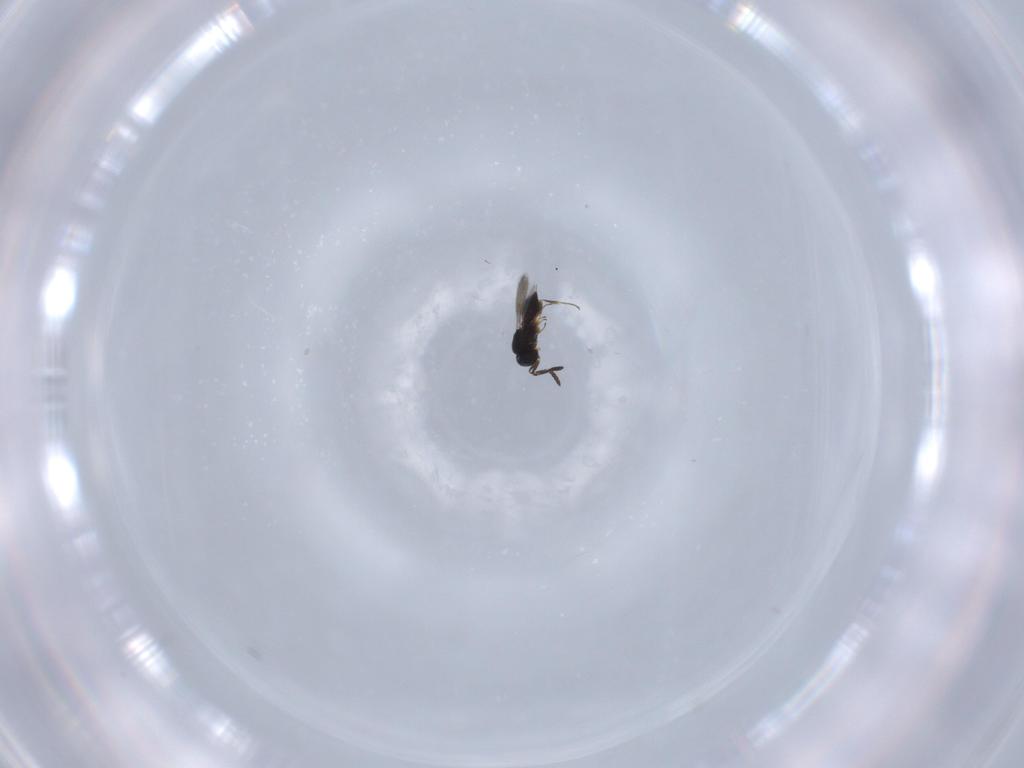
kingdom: Animalia
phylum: Arthropoda
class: Insecta
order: Hymenoptera
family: Scelionidae
